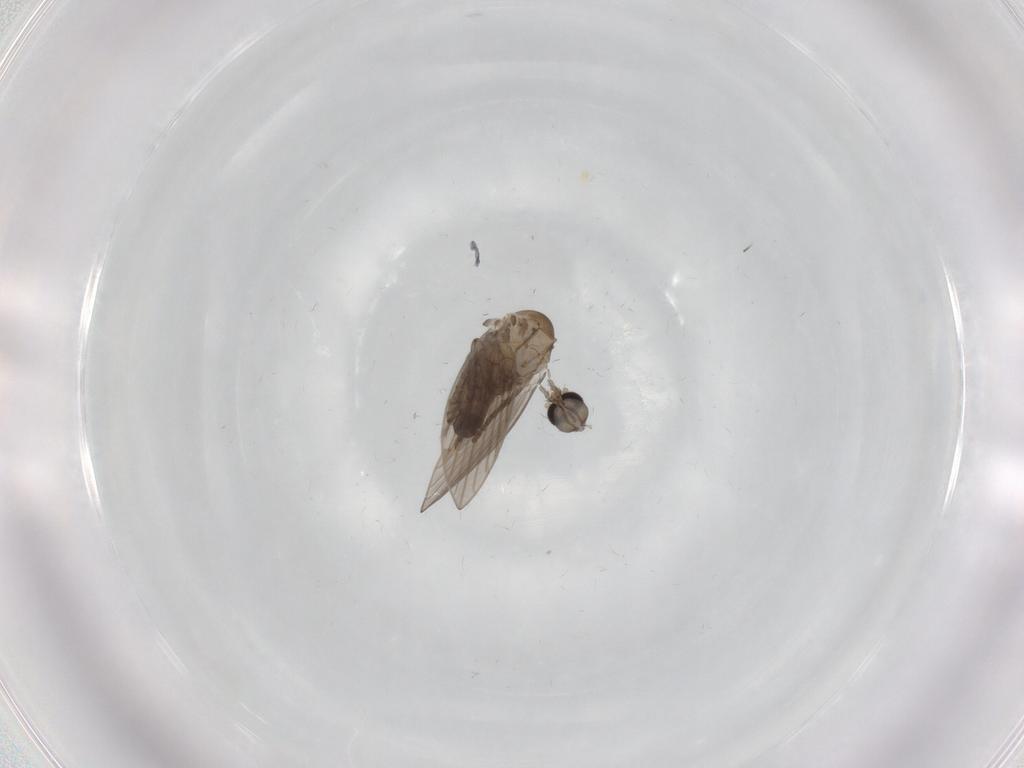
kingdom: Animalia
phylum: Arthropoda
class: Insecta
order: Diptera
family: Psychodidae
